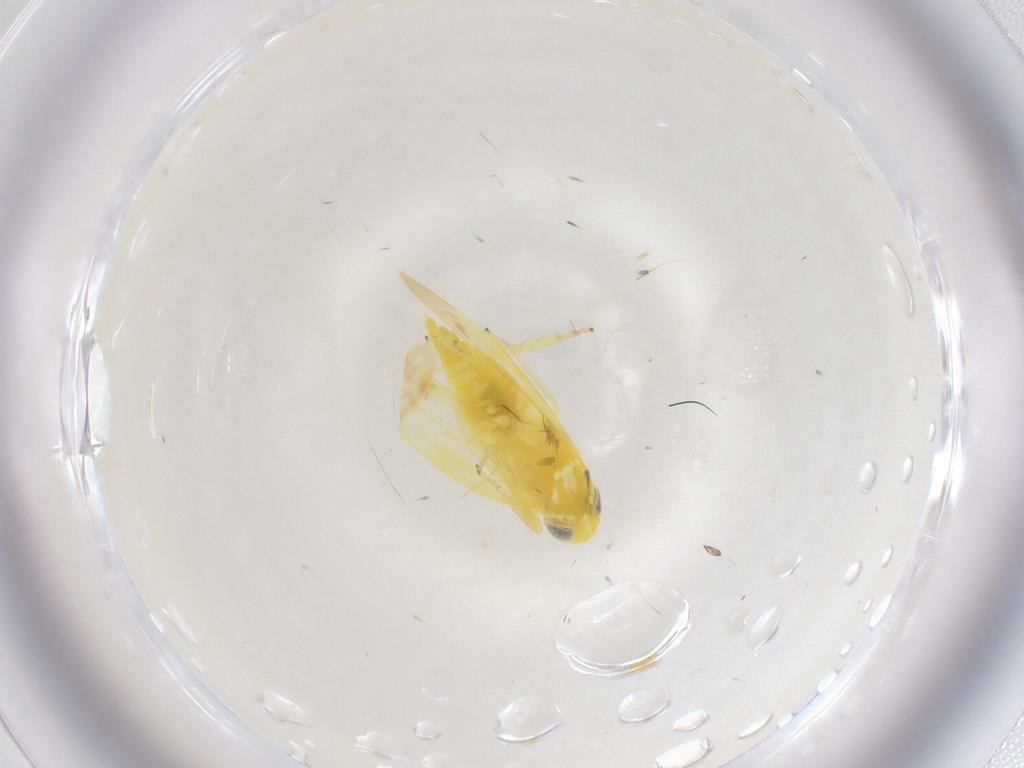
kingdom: Animalia
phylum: Arthropoda
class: Insecta
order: Hemiptera
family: Cicadellidae
